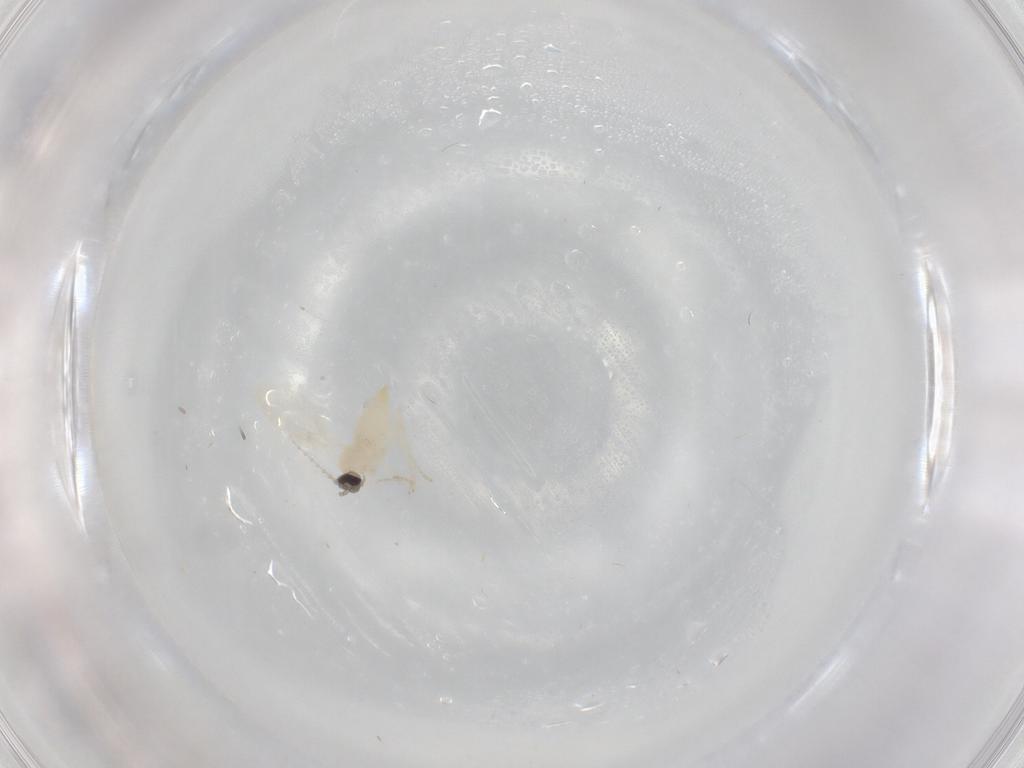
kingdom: Animalia
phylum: Arthropoda
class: Insecta
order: Diptera
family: Cecidomyiidae
